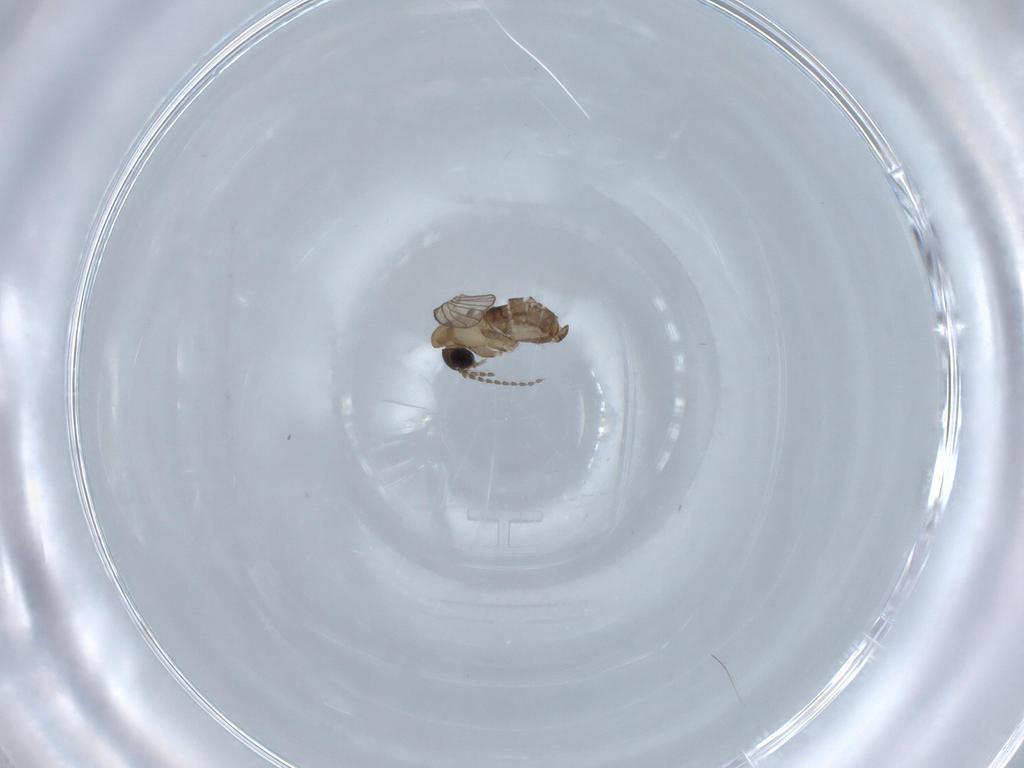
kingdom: Animalia
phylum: Arthropoda
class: Insecta
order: Diptera
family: Psychodidae
